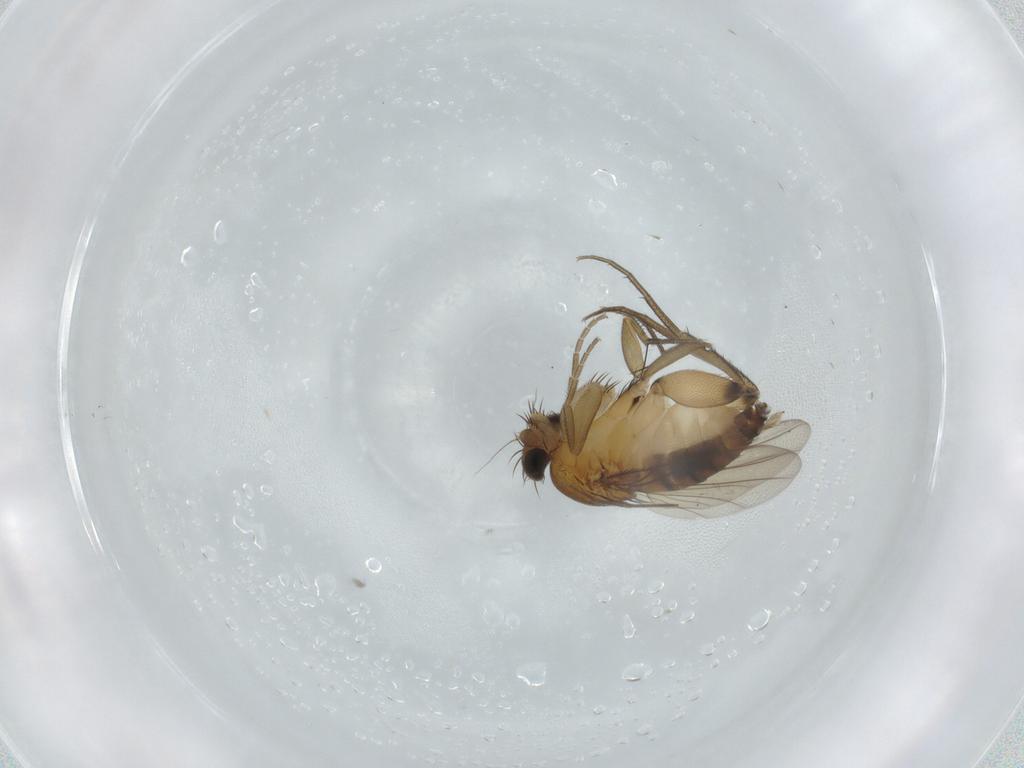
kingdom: Animalia
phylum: Arthropoda
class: Insecta
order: Diptera
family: Phoridae
